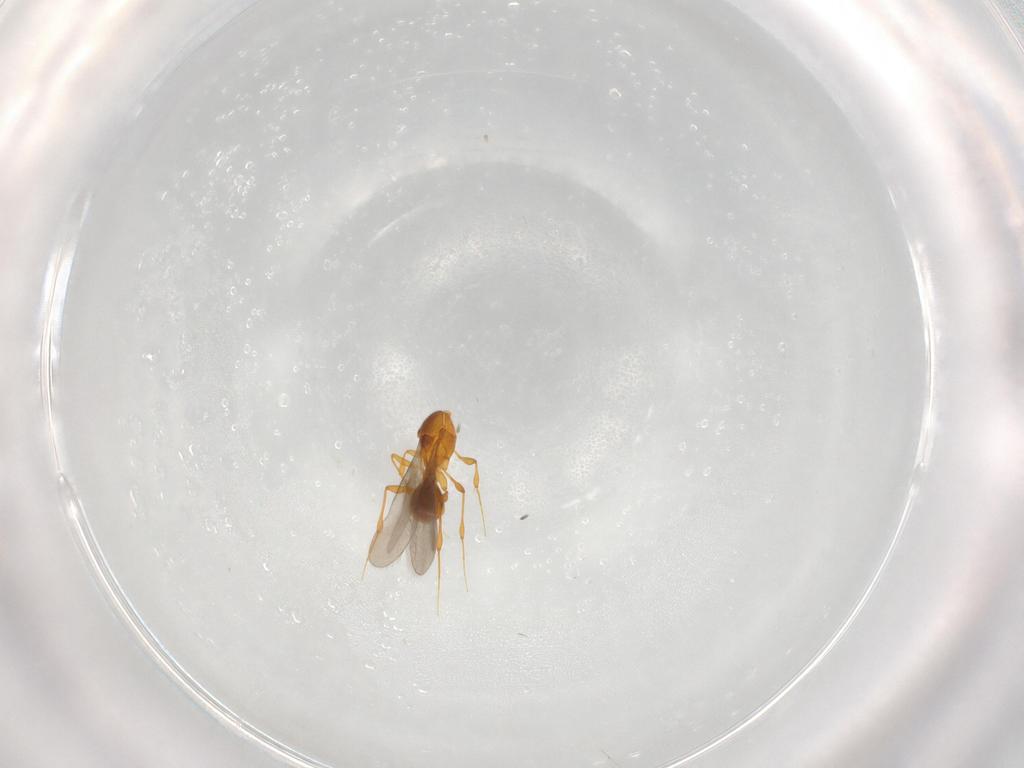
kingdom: Animalia
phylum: Arthropoda
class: Insecta
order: Hymenoptera
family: Platygastridae
